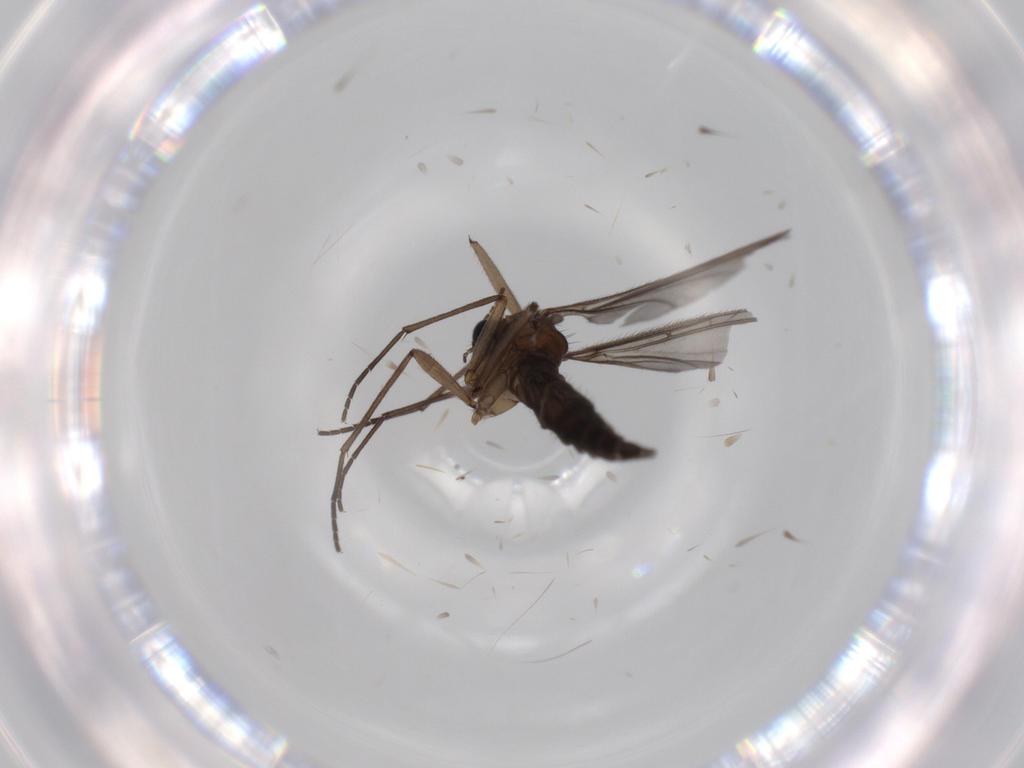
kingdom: Animalia
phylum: Arthropoda
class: Insecta
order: Diptera
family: Sciaridae
